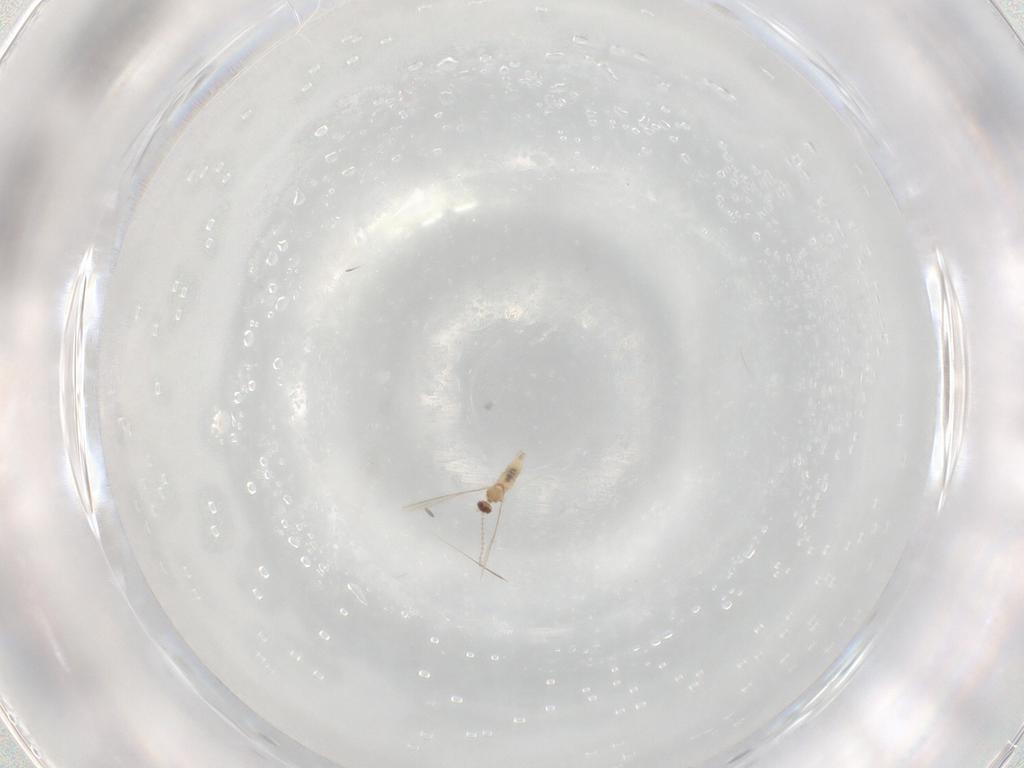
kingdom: Animalia
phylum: Arthropoda
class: Insecta
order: Diptera
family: Cecidomyiidae
